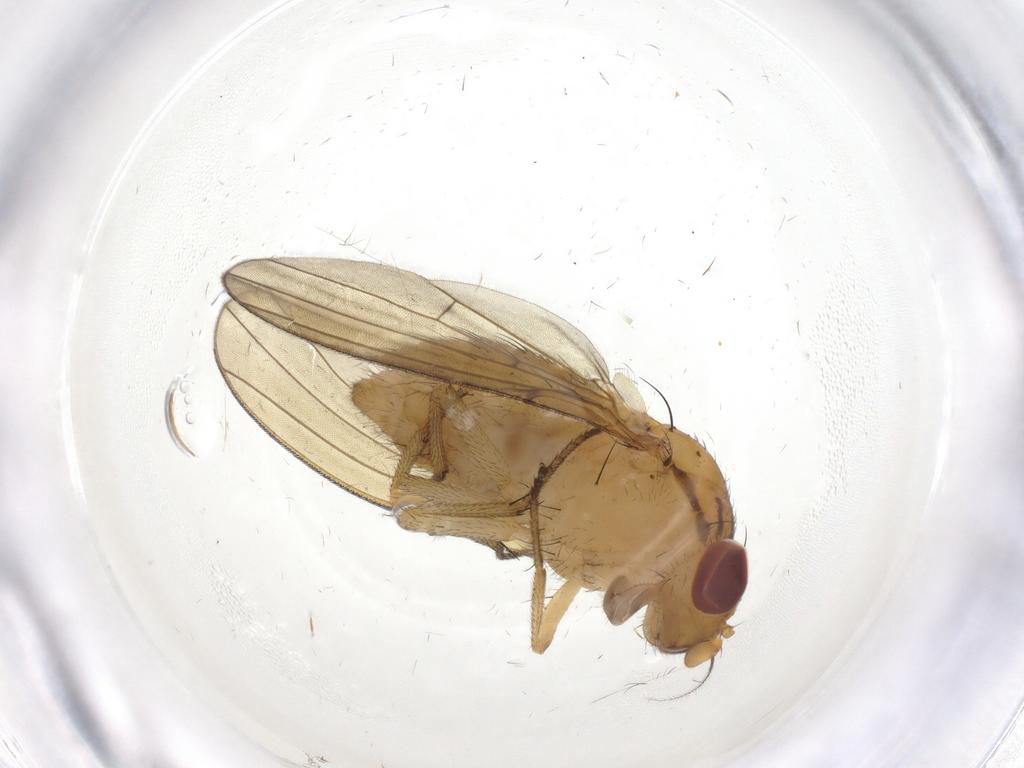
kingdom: Animalia
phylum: Arthropoda
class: Insecta
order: Diptera
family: Lauxaniidae
